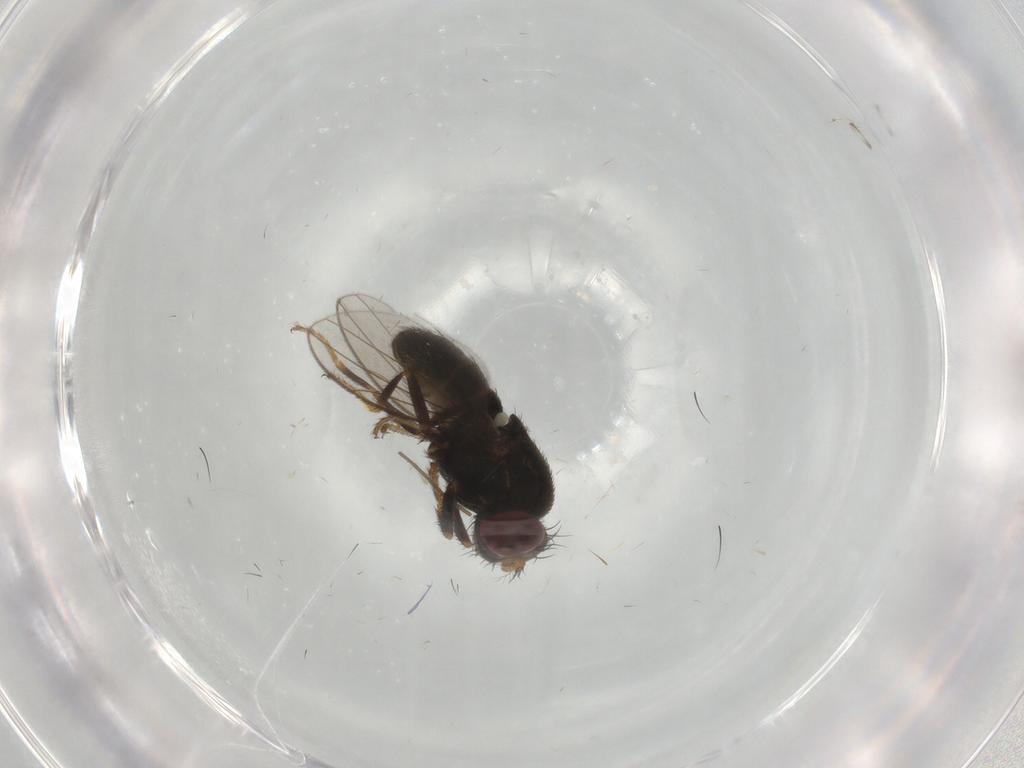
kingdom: Animalia
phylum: Arthropoda
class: Insecta
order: Diptera
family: Ephydridae
